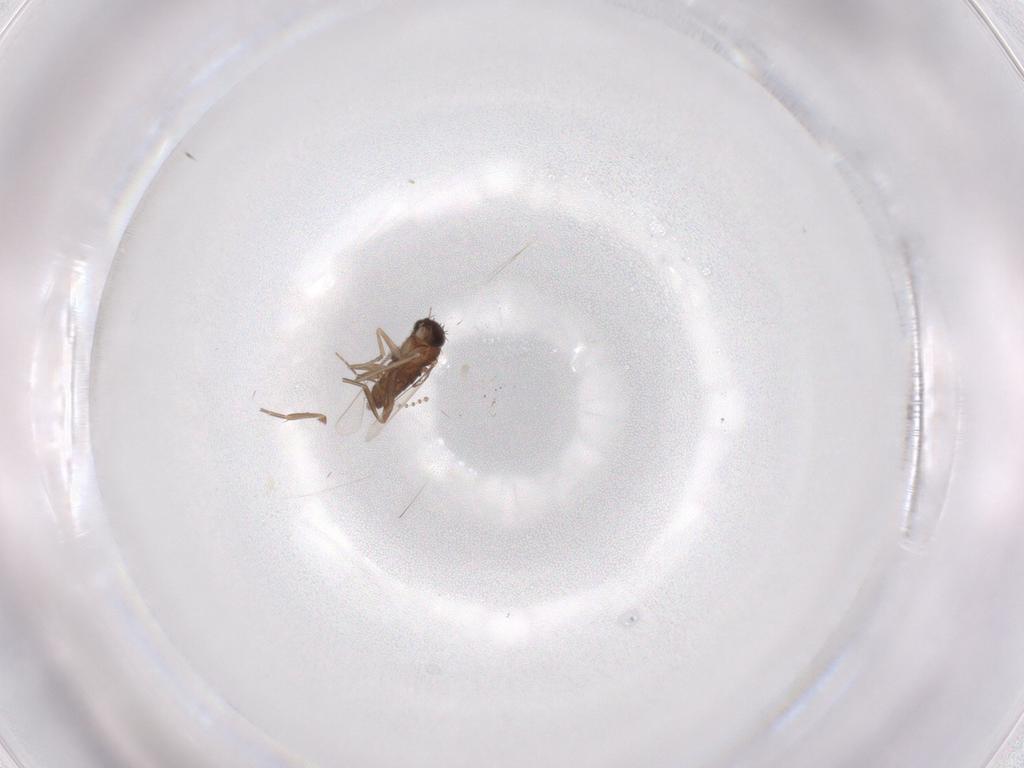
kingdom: Animalia
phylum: Arthropoda
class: Insecta
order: Diptera
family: Phoridae
